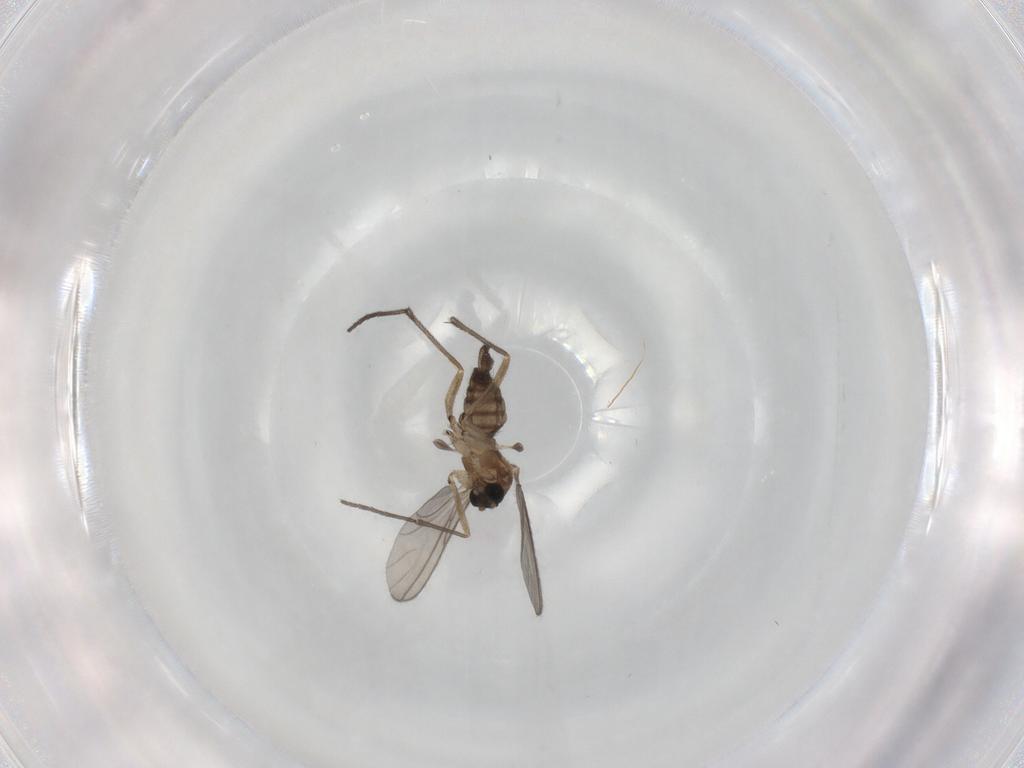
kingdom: Animalia
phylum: Arthropoda
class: Insecta
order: Diptera
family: Sciaridae
